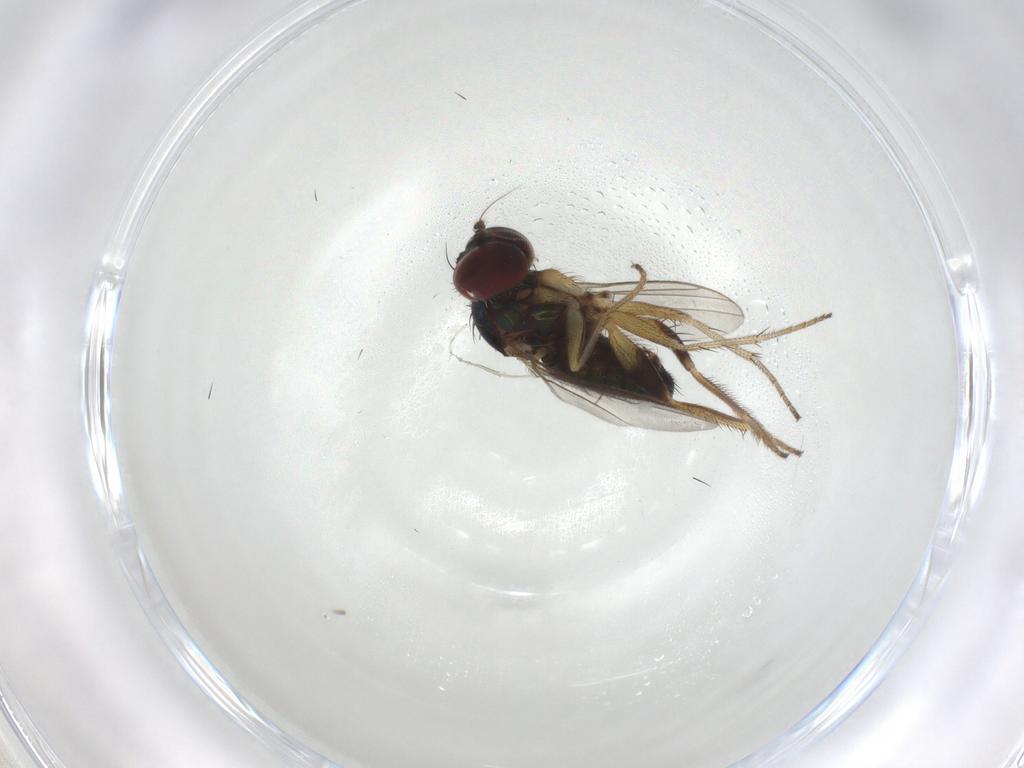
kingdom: Animalia
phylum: Arthropoda
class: Insecta
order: Diptera
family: Dolichopodidae
